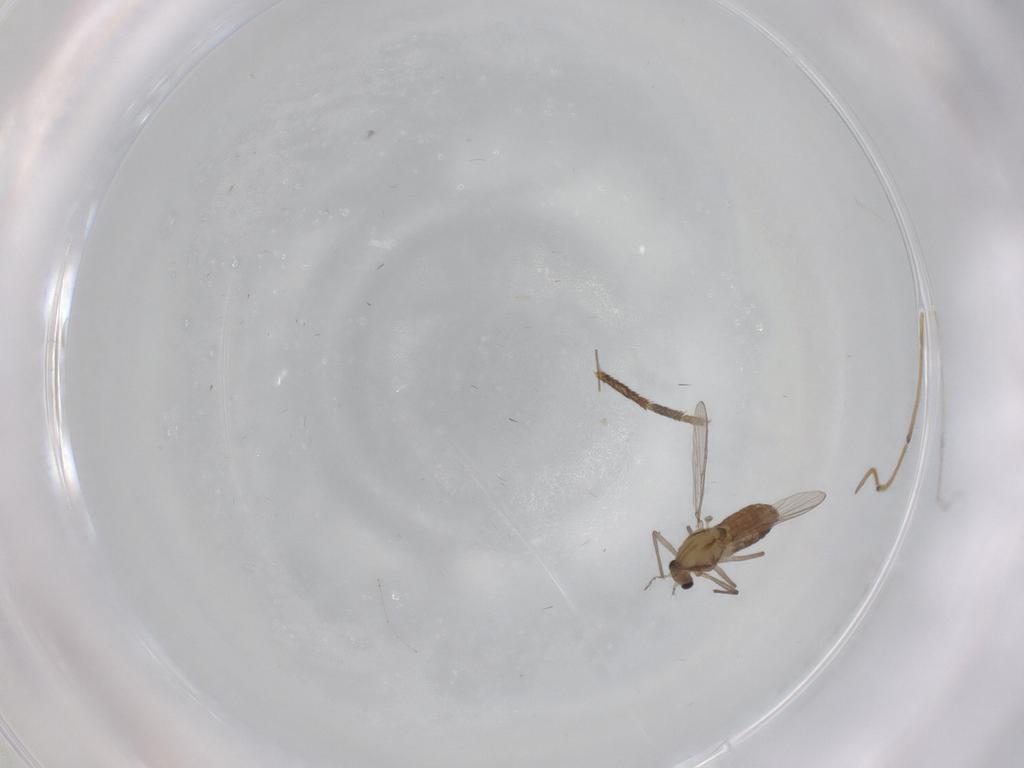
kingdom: Animalia
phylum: Arthropoda
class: Insecta
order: Diptera
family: Chironomidae
